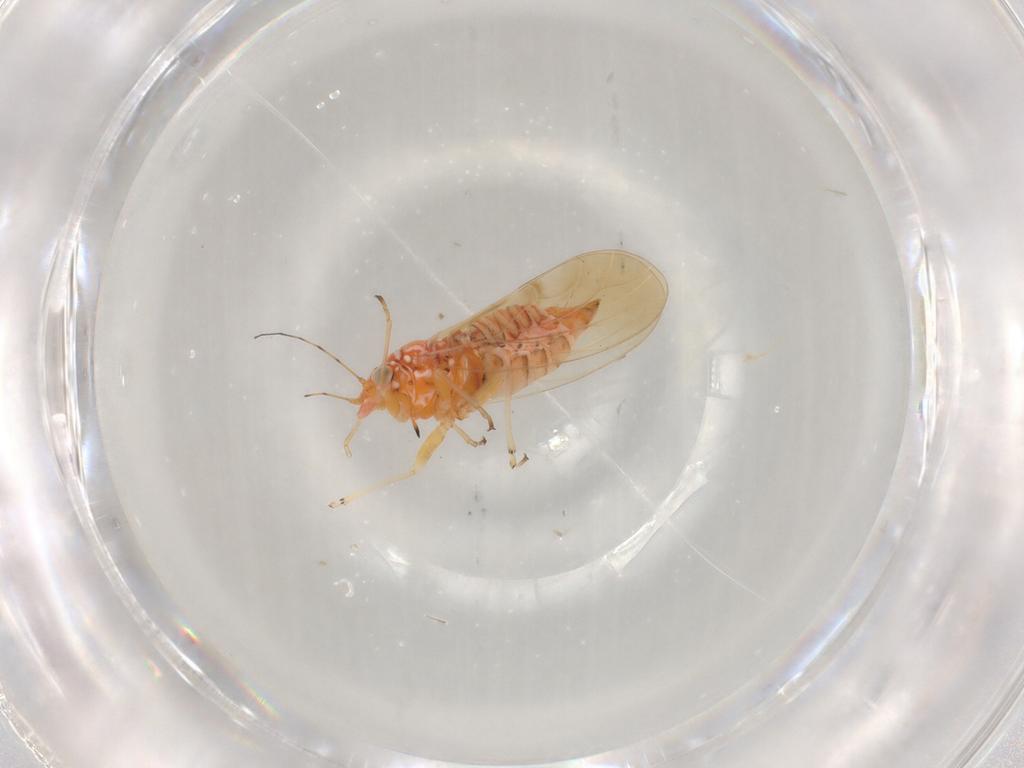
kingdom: Animalia
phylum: Arthropoda
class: Insecta
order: Hemiptera
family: Psyllidae
